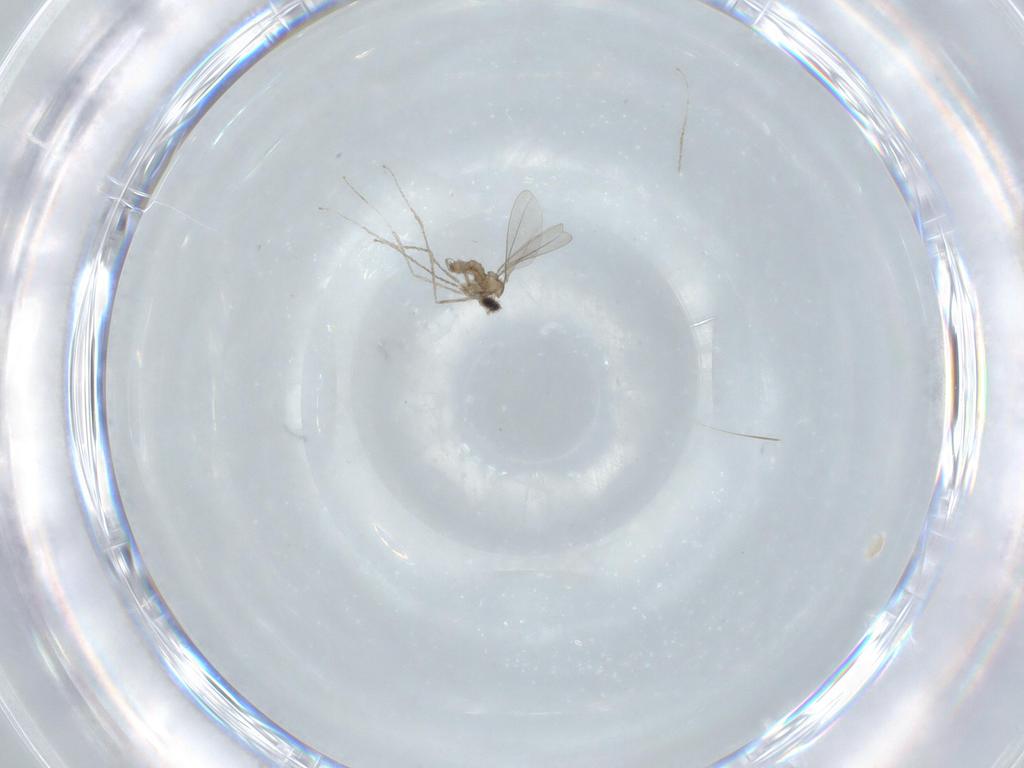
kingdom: Animalia
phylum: Arthropoda
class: Insecta
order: Diptera
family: Cecidomyiidae
